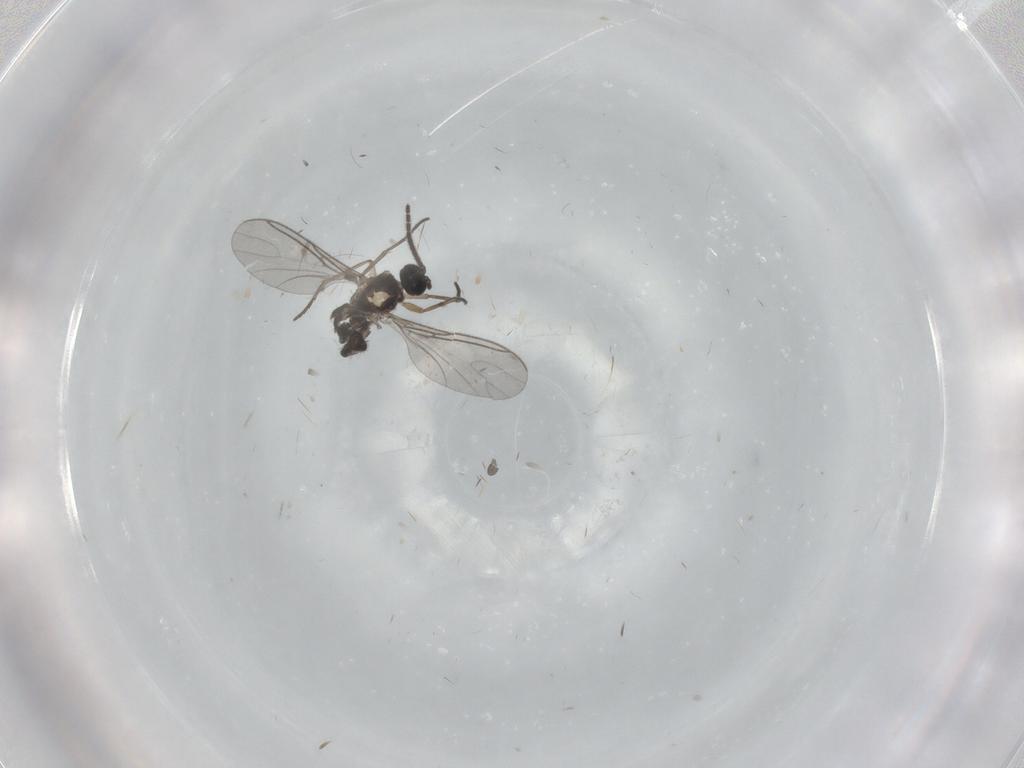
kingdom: Animalia
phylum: Arthropoda
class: Insecta
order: Diptera
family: Sciaridae
